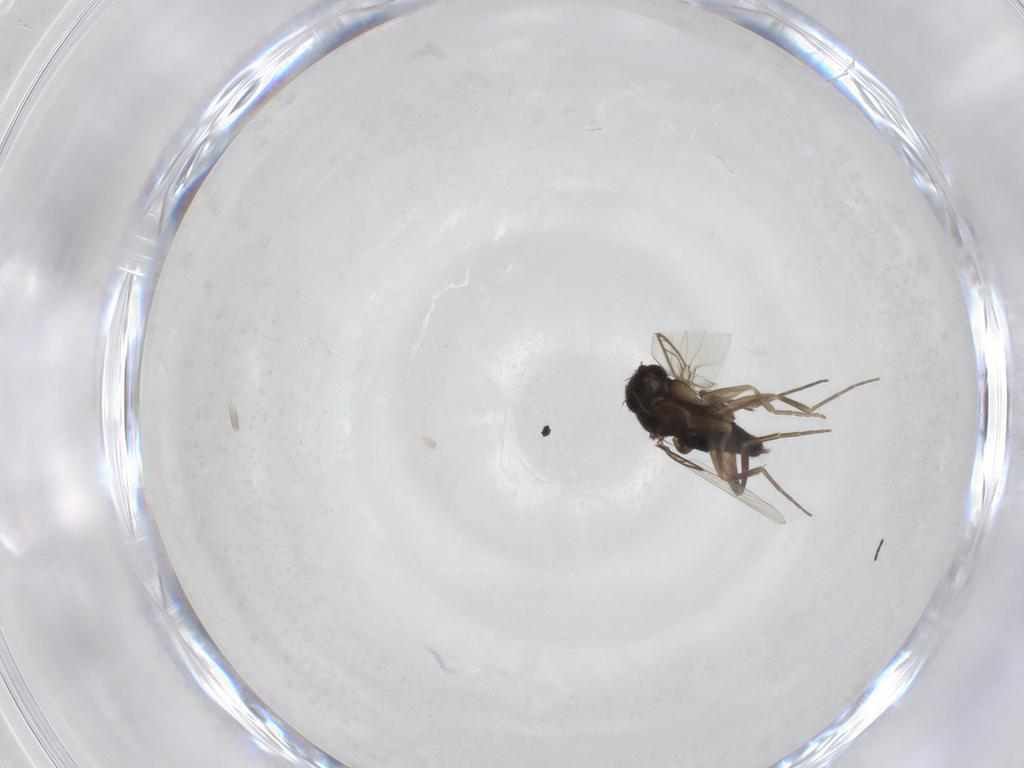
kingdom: Animalia
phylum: Arthropoda
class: Insecta
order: Diptera
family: Phoridae
